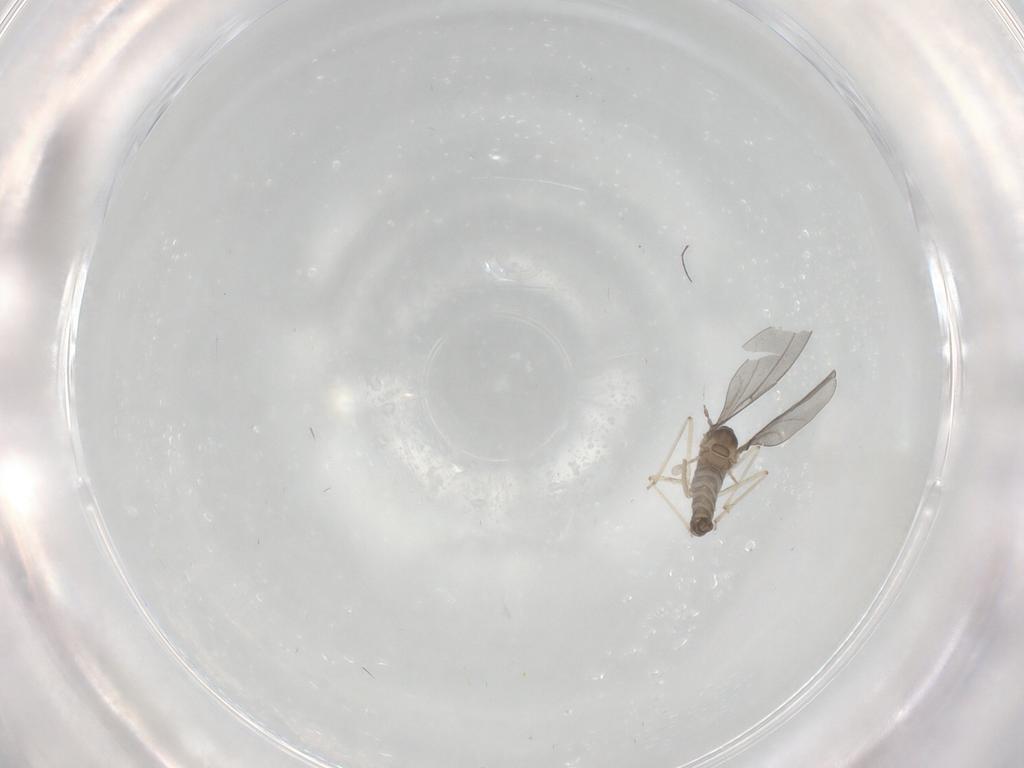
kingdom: Animalia
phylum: Arthropoda
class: Insecta
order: Diptera
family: Cecidomyiidae
